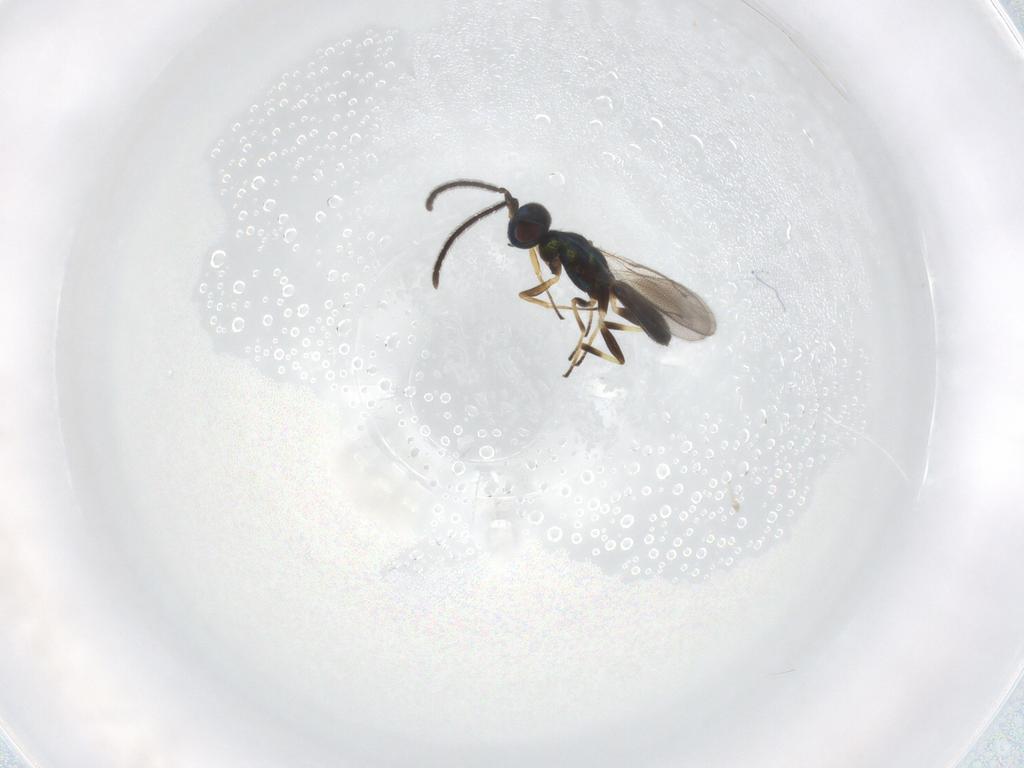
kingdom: Animalia
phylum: Arthropoda
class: Insecta
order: Hymenoptera
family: Eupelmidae
